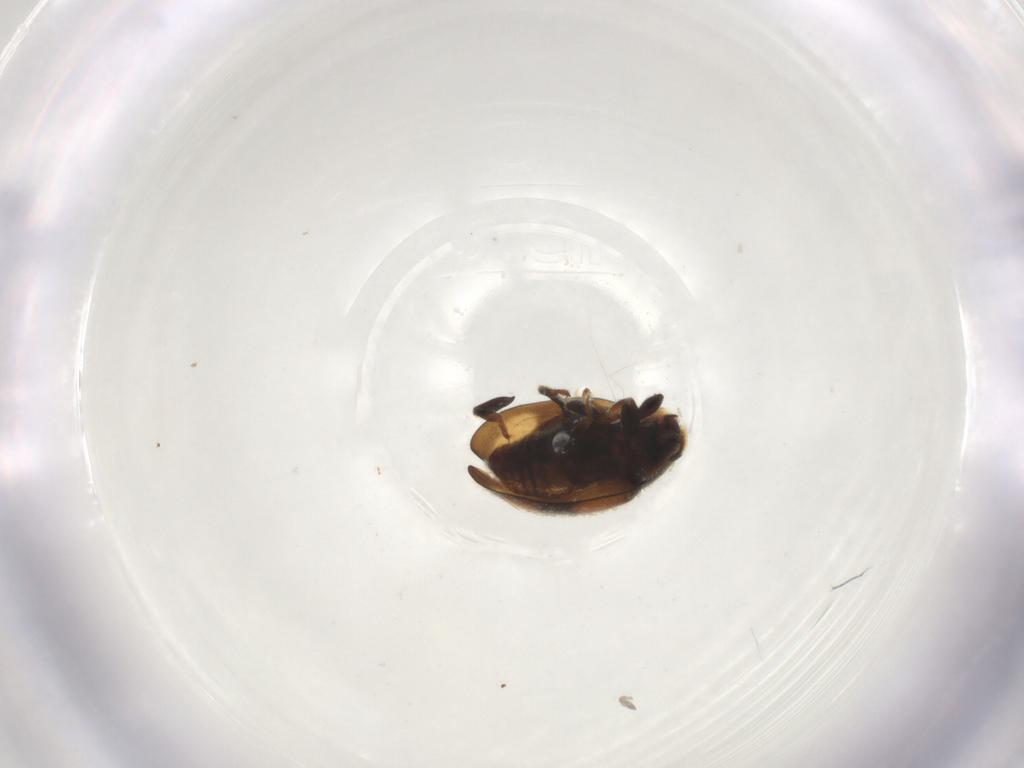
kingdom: Animalia
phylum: Arthropoda
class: Insecta
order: Coleoptera
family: Coccinellidae
